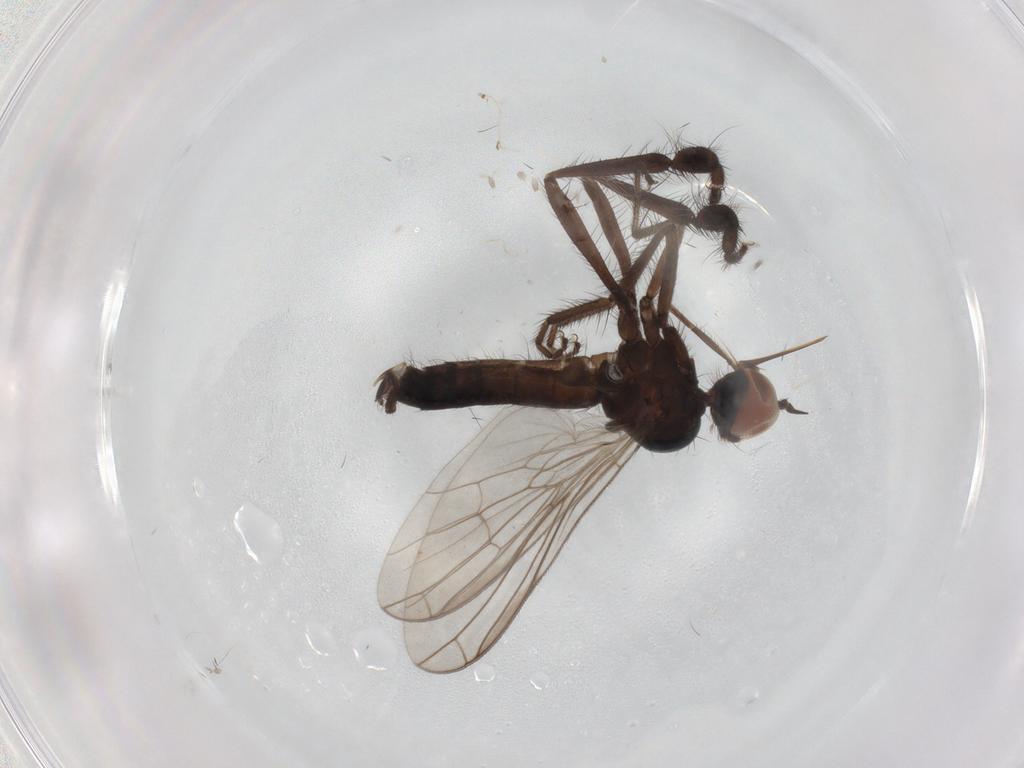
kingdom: Animalia
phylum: Arthropoda
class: Insecta
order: Diptera
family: Empididae
